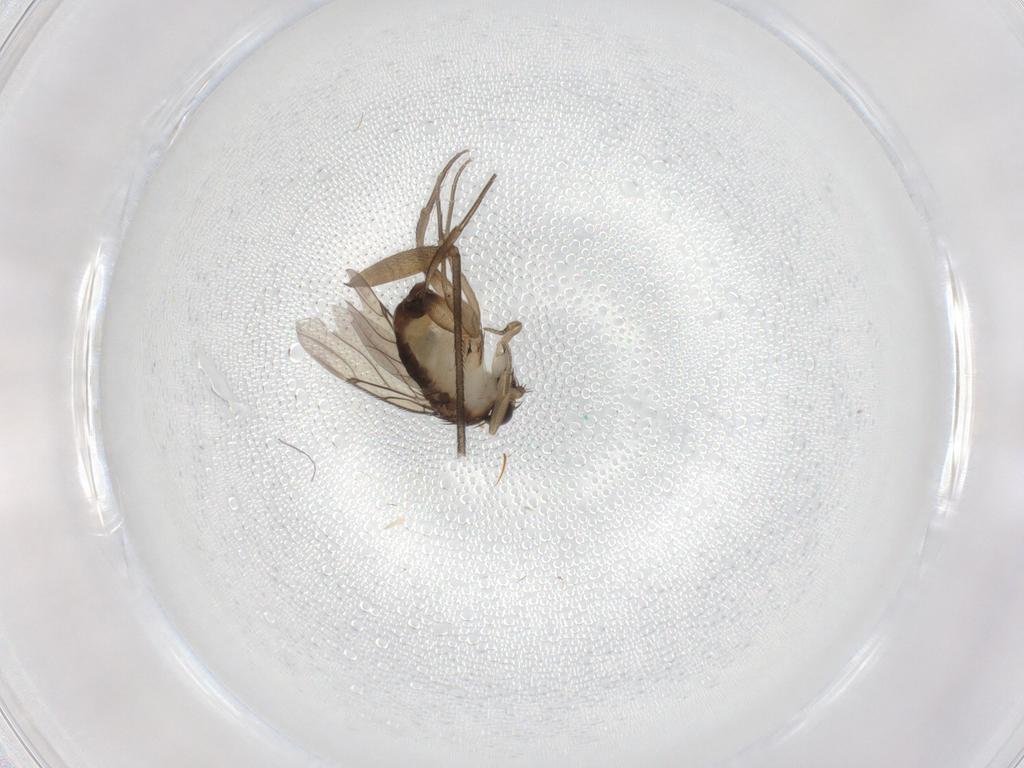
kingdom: Animalia
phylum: Arthropoda
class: Insecta
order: Diptera
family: Sciaridae
